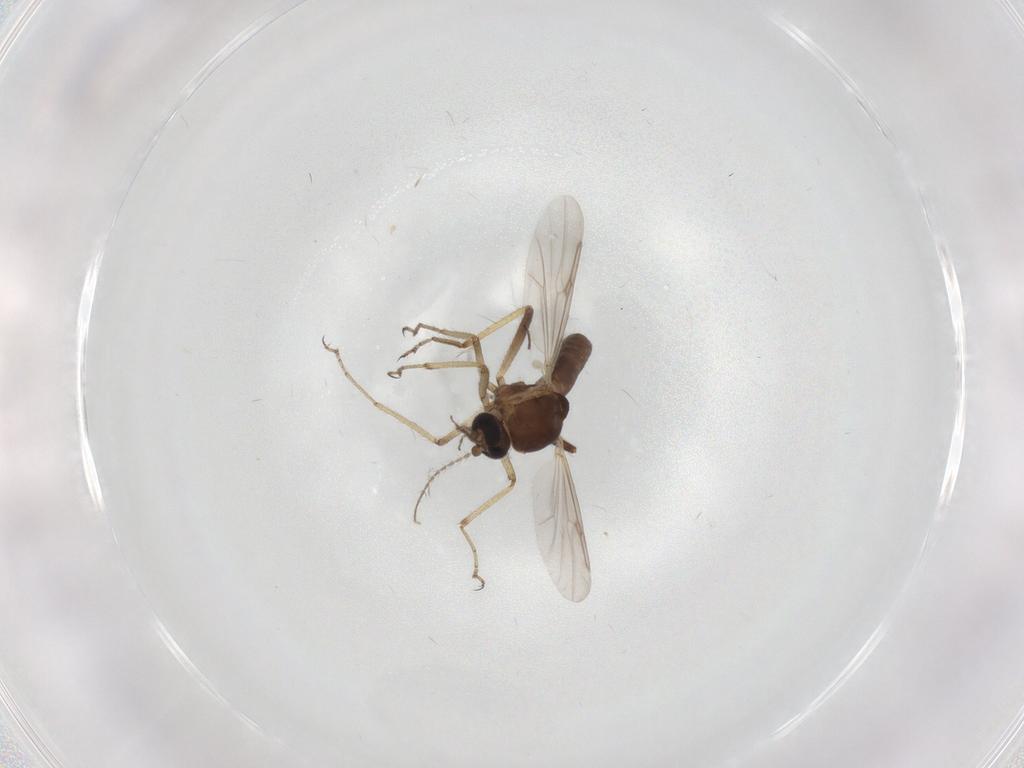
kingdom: Animalia
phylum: Arthropoda
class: Insecta
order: Diptera
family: Ceratopogonidae
